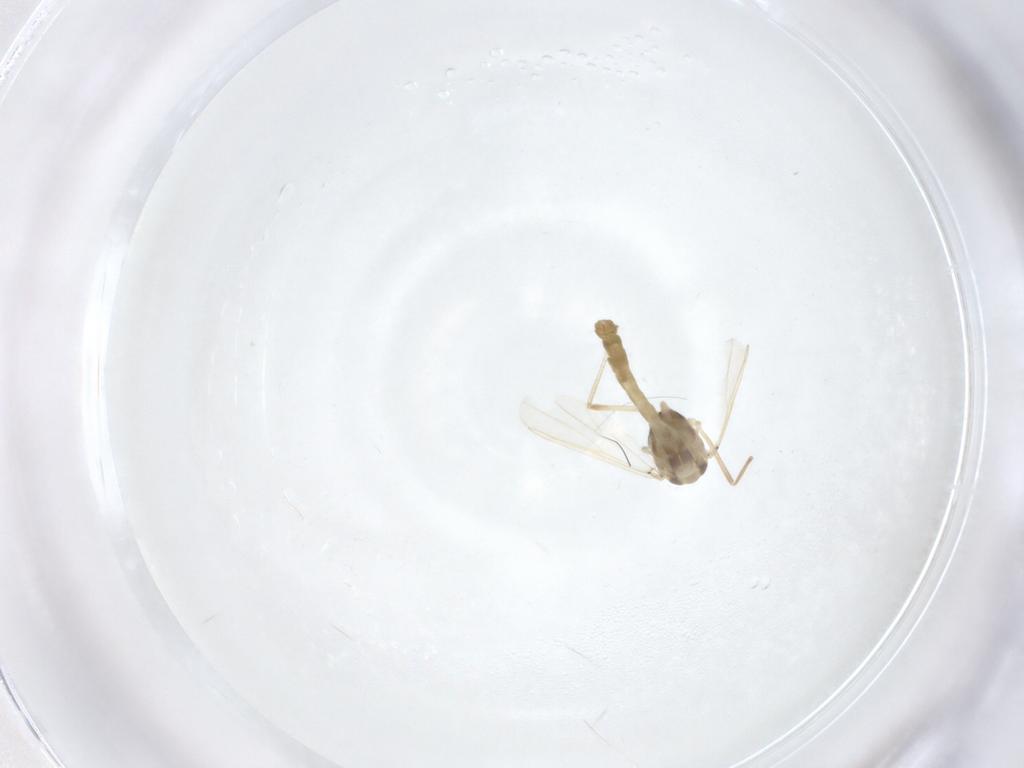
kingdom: Animalia
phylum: Arthropoda
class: Insecta
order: Diptera
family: Chironomidae
